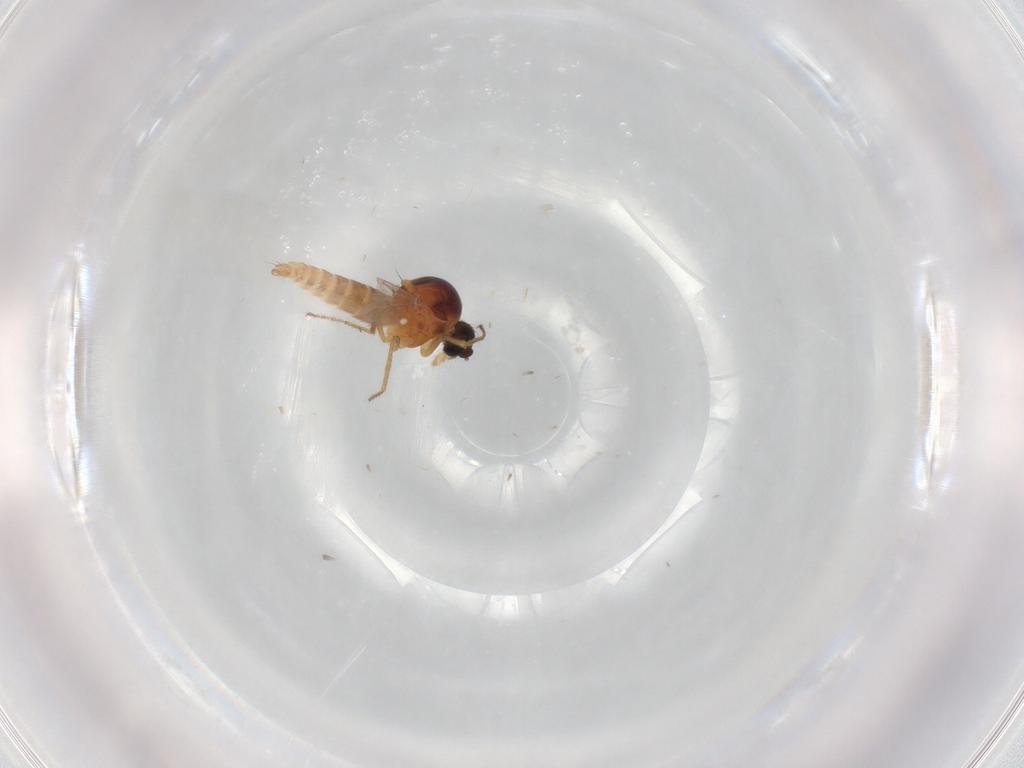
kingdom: Animalia
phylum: Arthropoda
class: Insecta
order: Diptera
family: Ceratopogonidae
